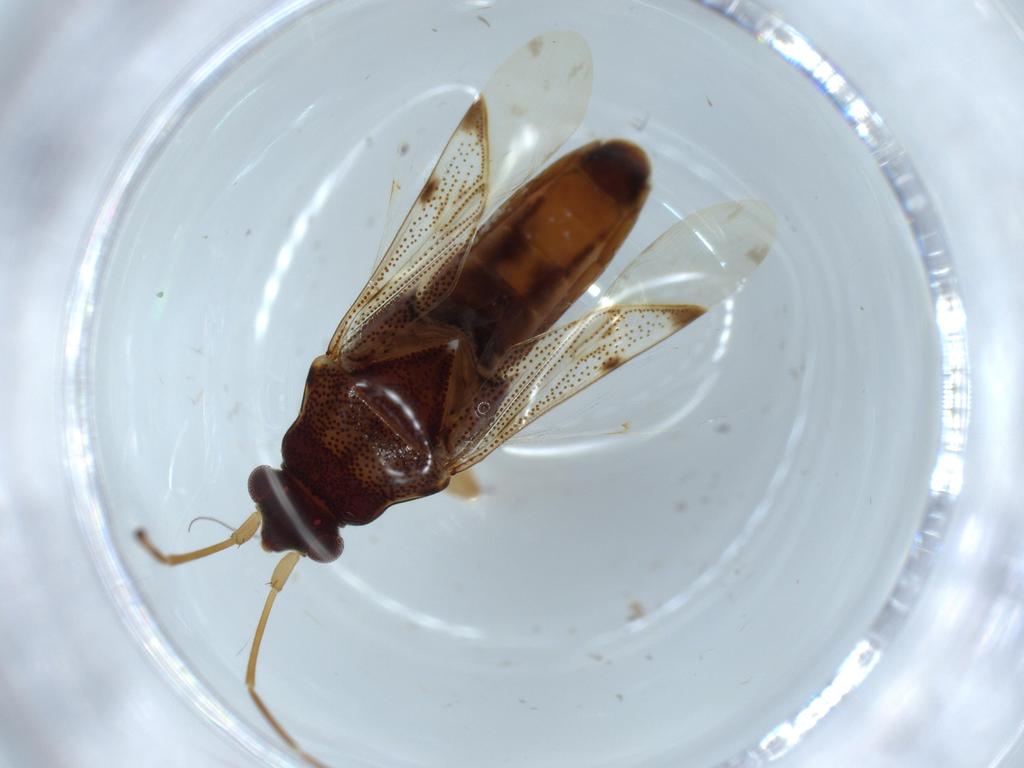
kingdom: Animalia
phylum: Arthropoda
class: Insecta
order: Hemiptera
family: Rhyparochromidae
